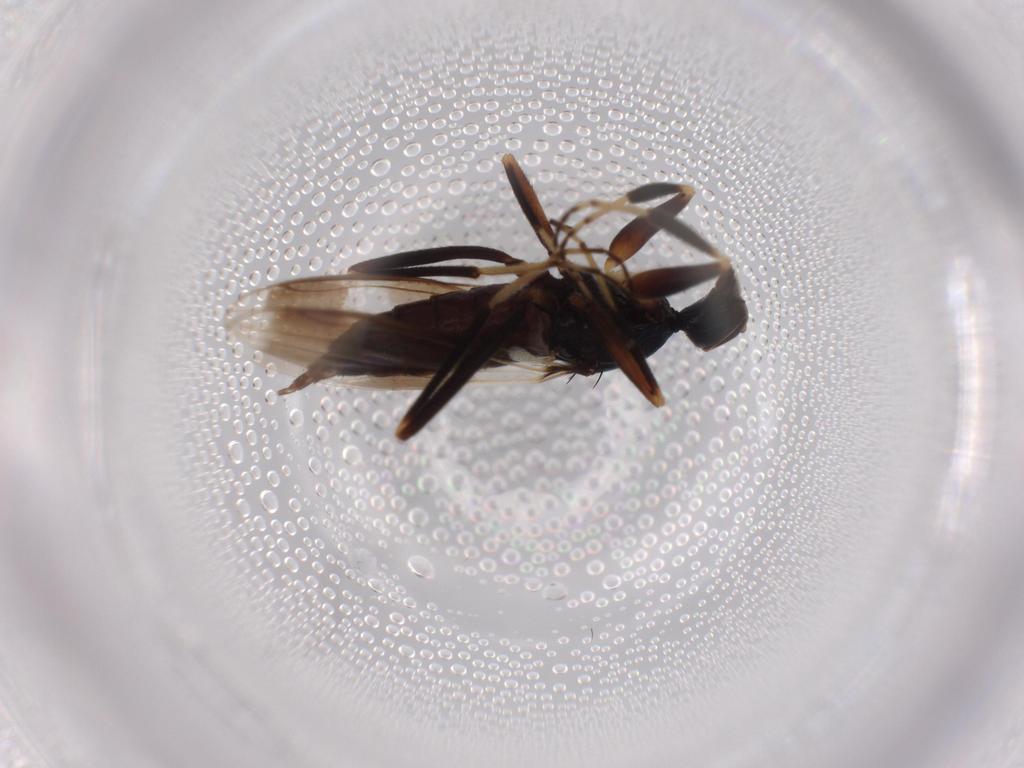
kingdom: Animalia
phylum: Arthropoda
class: Insecta
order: Diptera
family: Hybotidae
